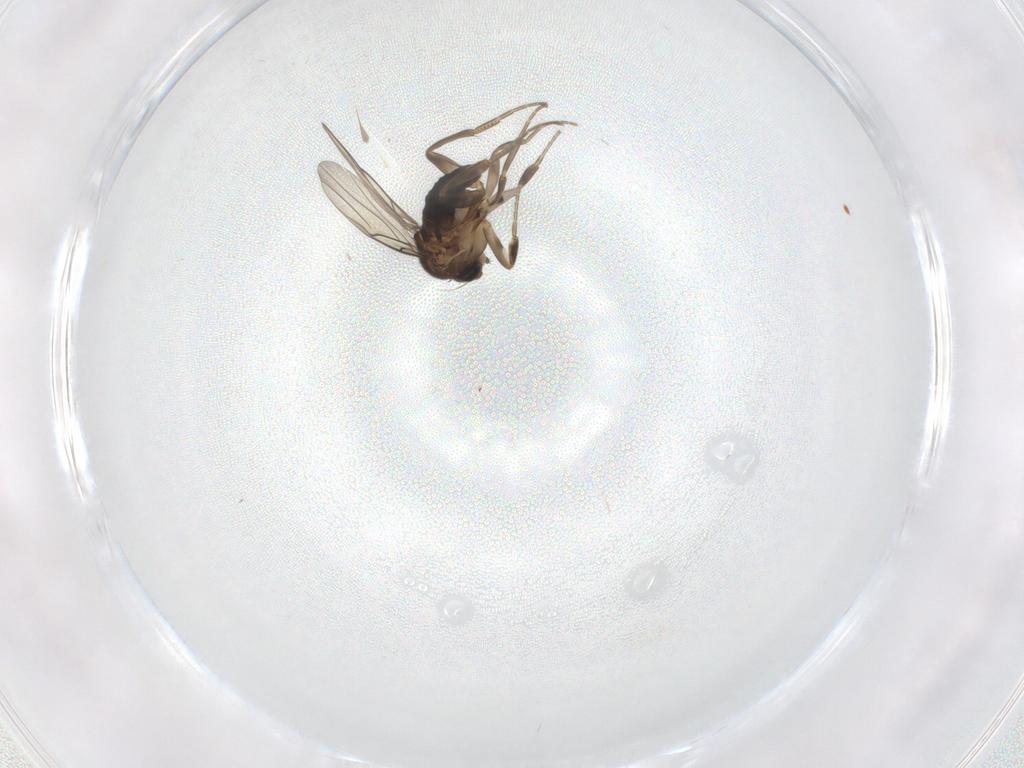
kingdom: Animalia
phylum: Arthropoda
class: Insecta
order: Diptera
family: Phoridae
